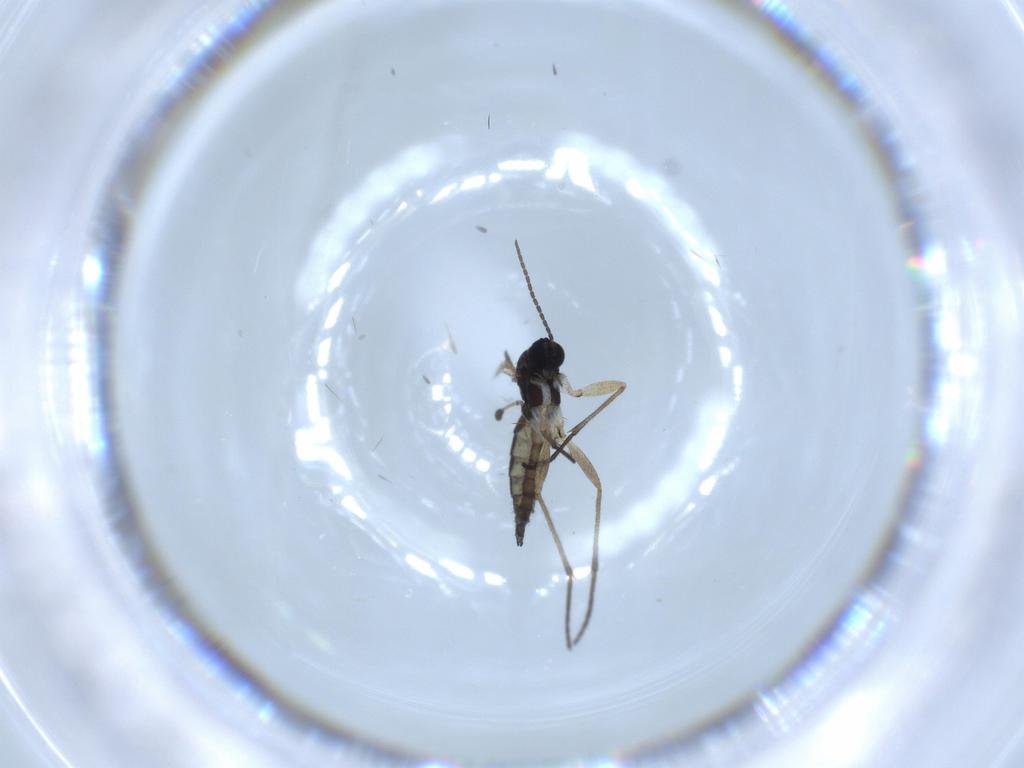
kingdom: Animalia
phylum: Arthropoda
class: Insecta
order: Diptera
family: Sciaridae
